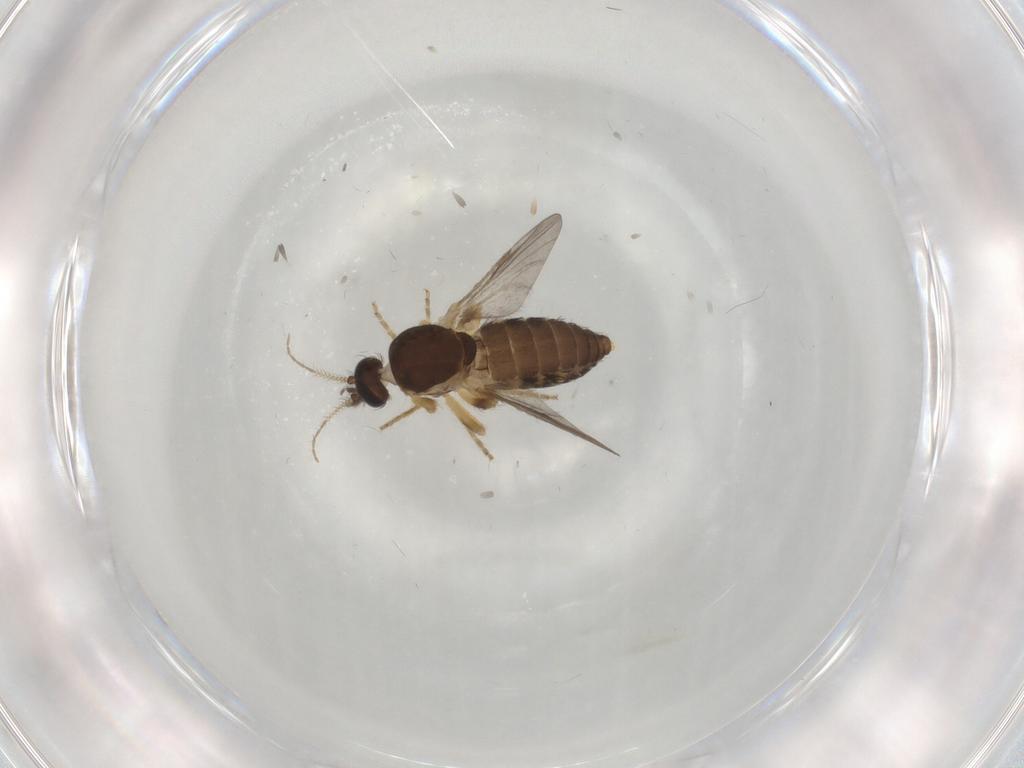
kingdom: Animalia
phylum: Arthropoda
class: Insecta
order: Diptera
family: Ceratopogonidae
